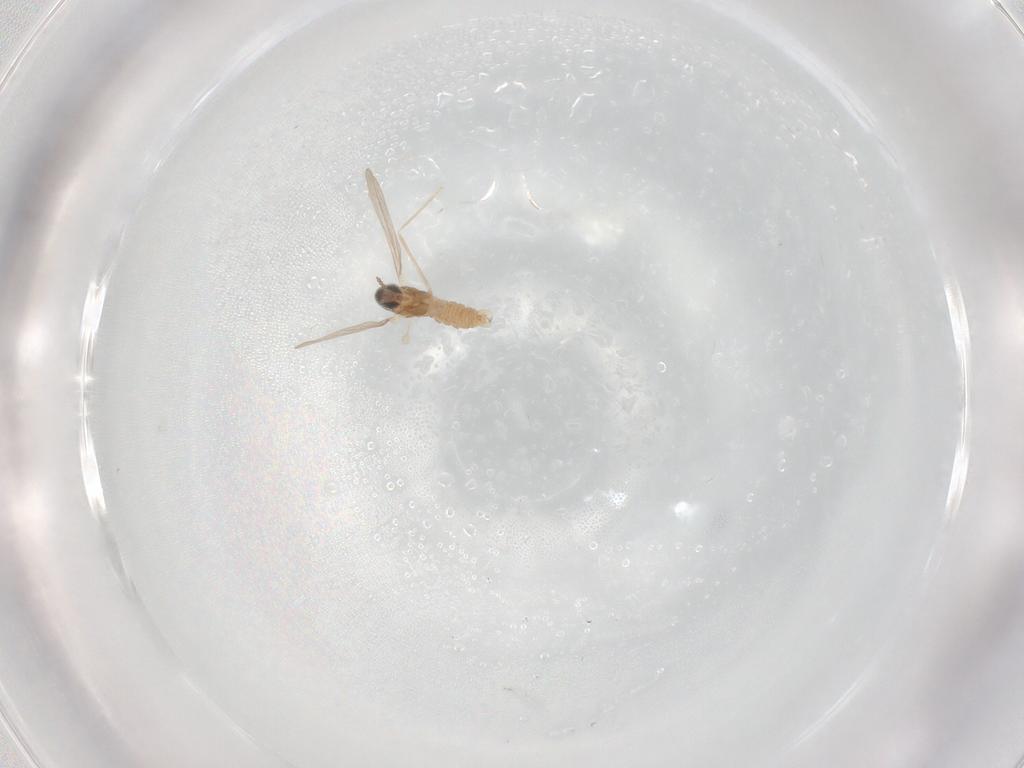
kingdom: Animalia
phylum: Arthropoda
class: Insecta
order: Diptera
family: Cecidomyiidae
